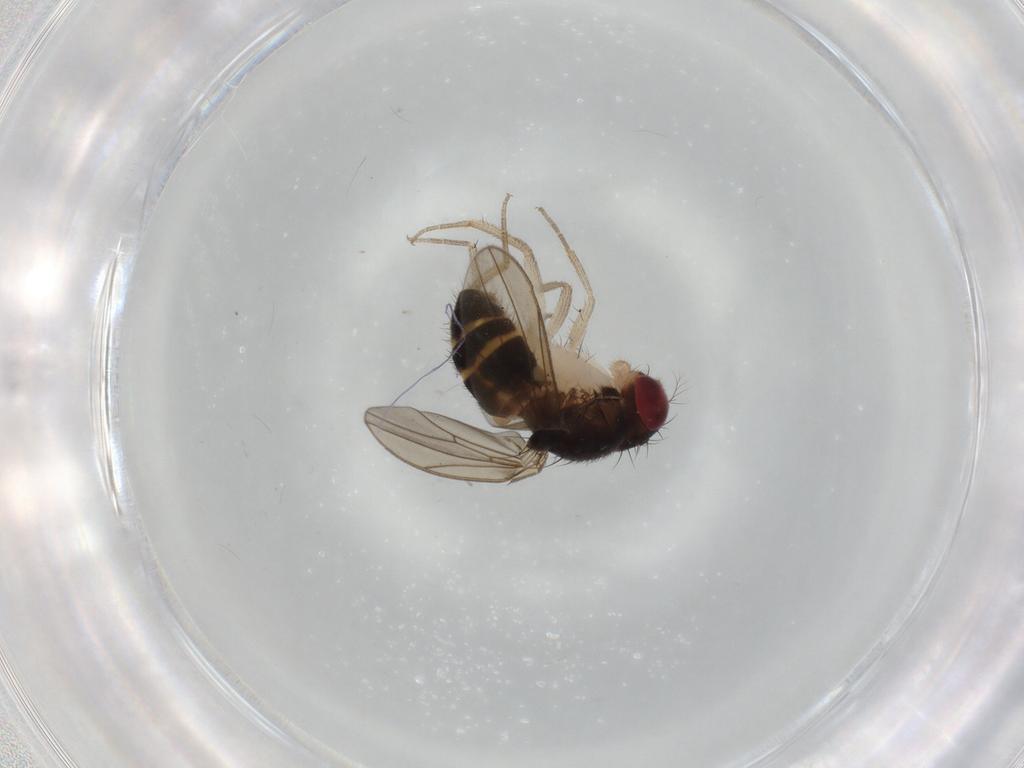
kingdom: Animalia
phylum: Arthropoda
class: Insecta
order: Diptera
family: Drosophilidae
